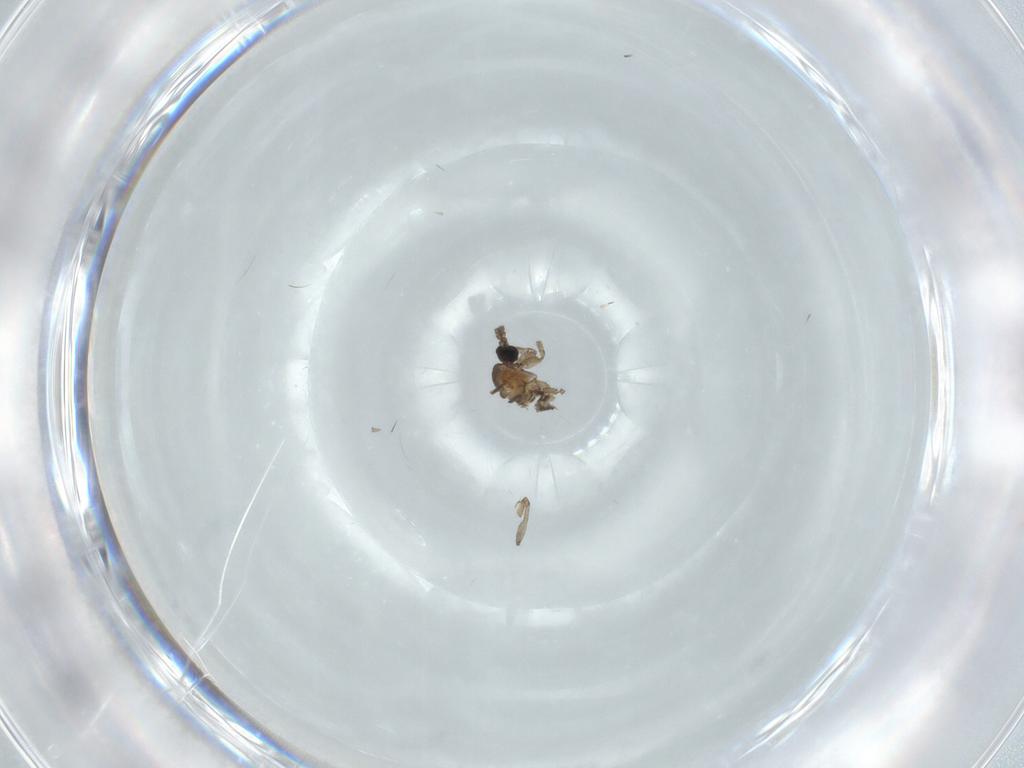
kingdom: Animalia
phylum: Arthropoda
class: Insecta
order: Diptera
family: Sciaridae
